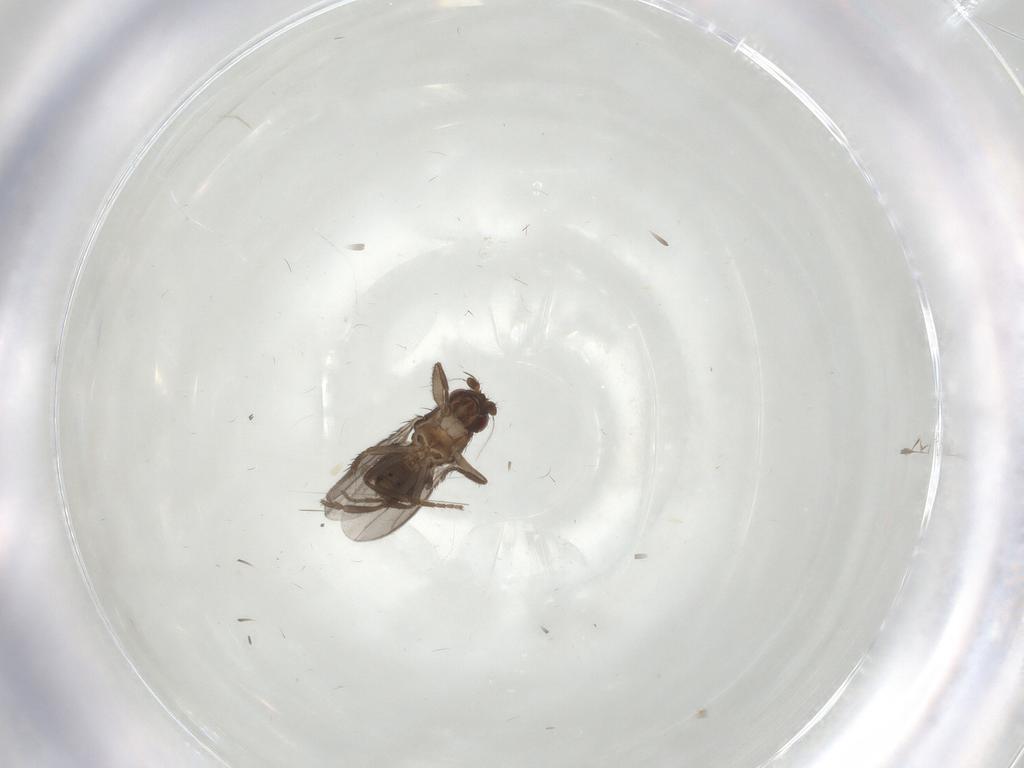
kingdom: Animalia
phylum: Arthropoda
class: Insecta
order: Diptera
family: Sphaeroceridae
